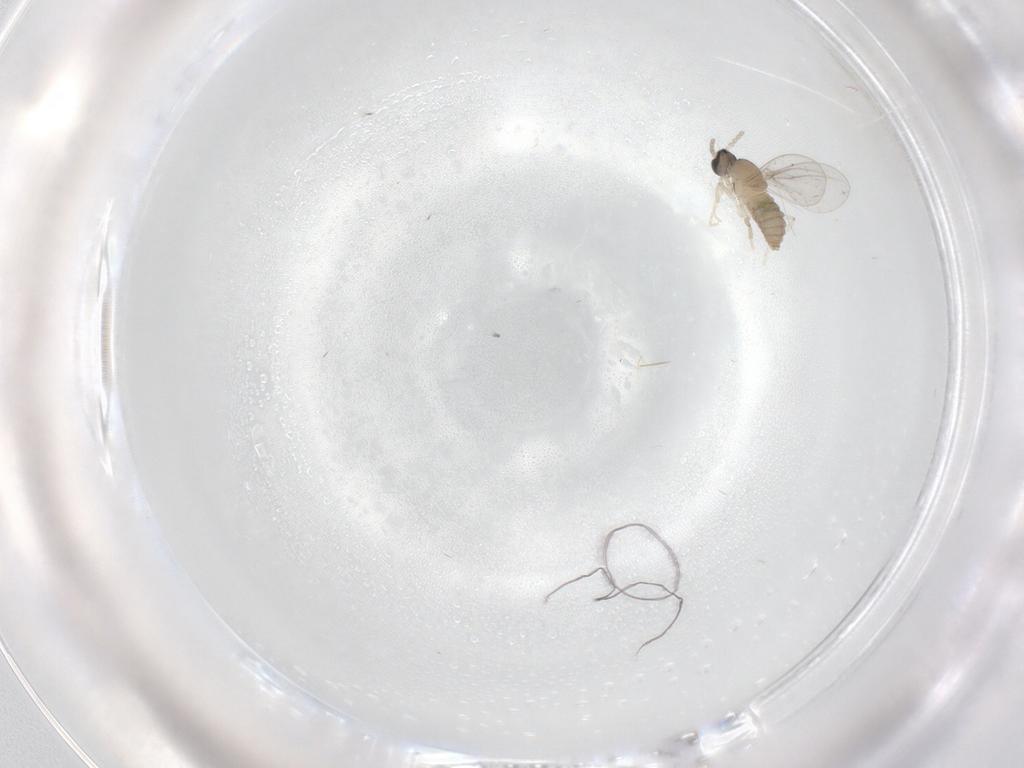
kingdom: Animalia
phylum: Arthropoda
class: Insecta
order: Diptera
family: Cecidomyiidae
